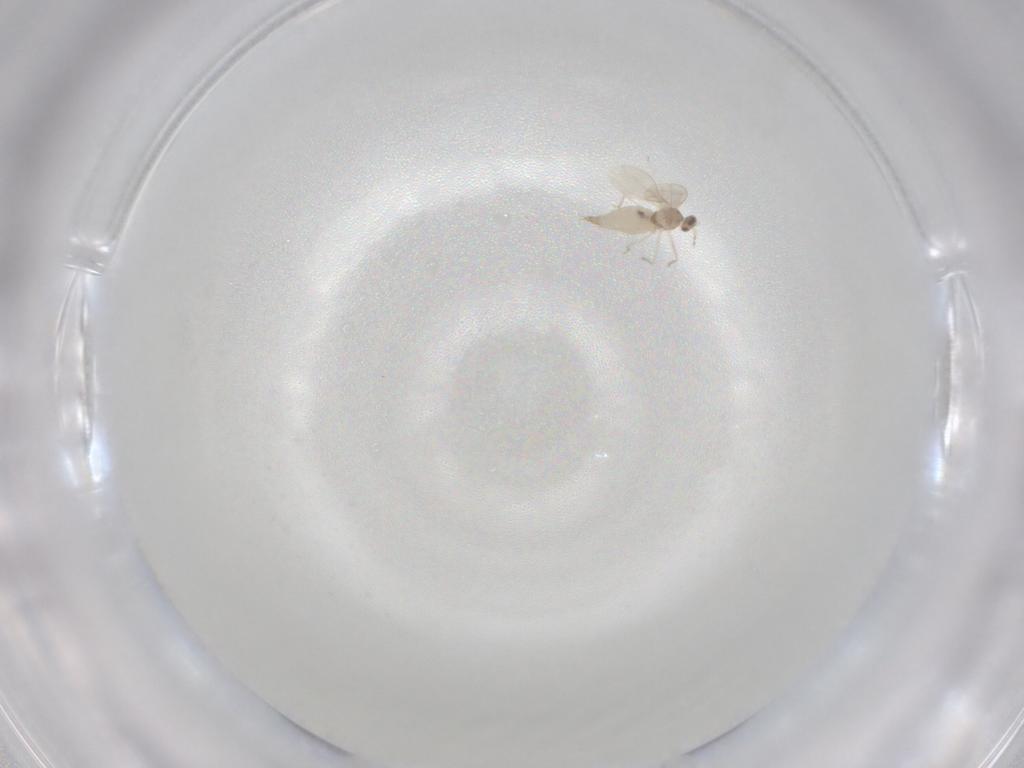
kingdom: Animalia
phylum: Arthropoda
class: Insecta
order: Diptera
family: Cecidomyiidae
